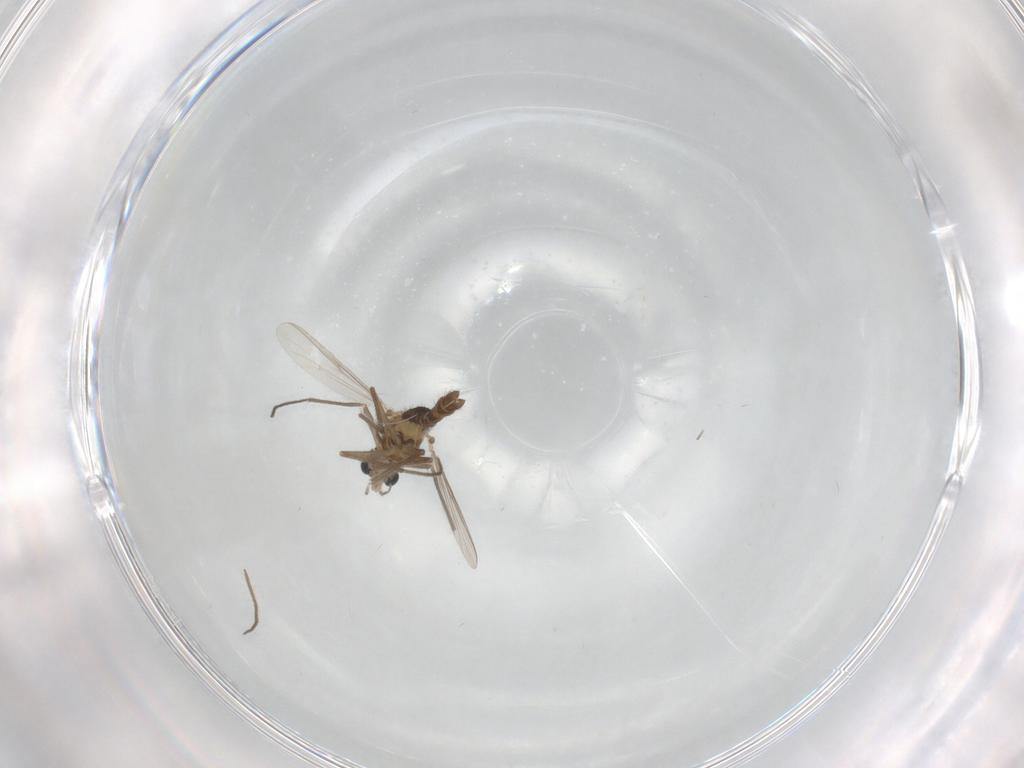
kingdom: Animalia
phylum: Arthropoda
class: Insecta
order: Diptera
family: Chironomidae
